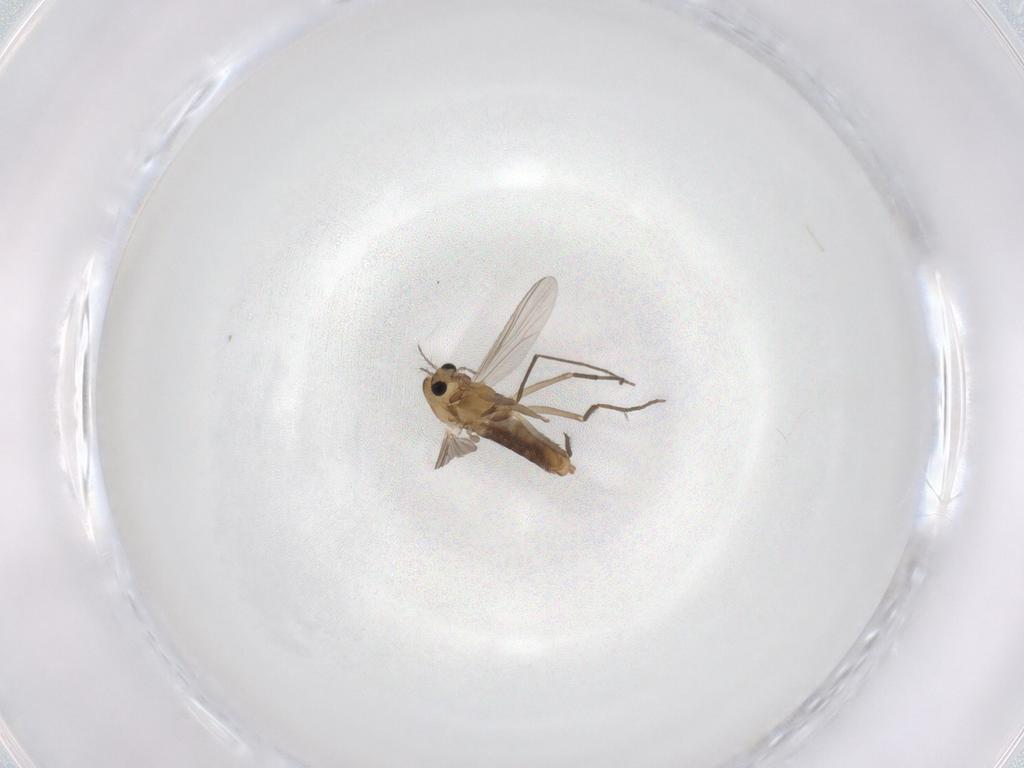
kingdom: Animalia
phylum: Arthropoda
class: Insecta
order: Diptera
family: Chironomidae
